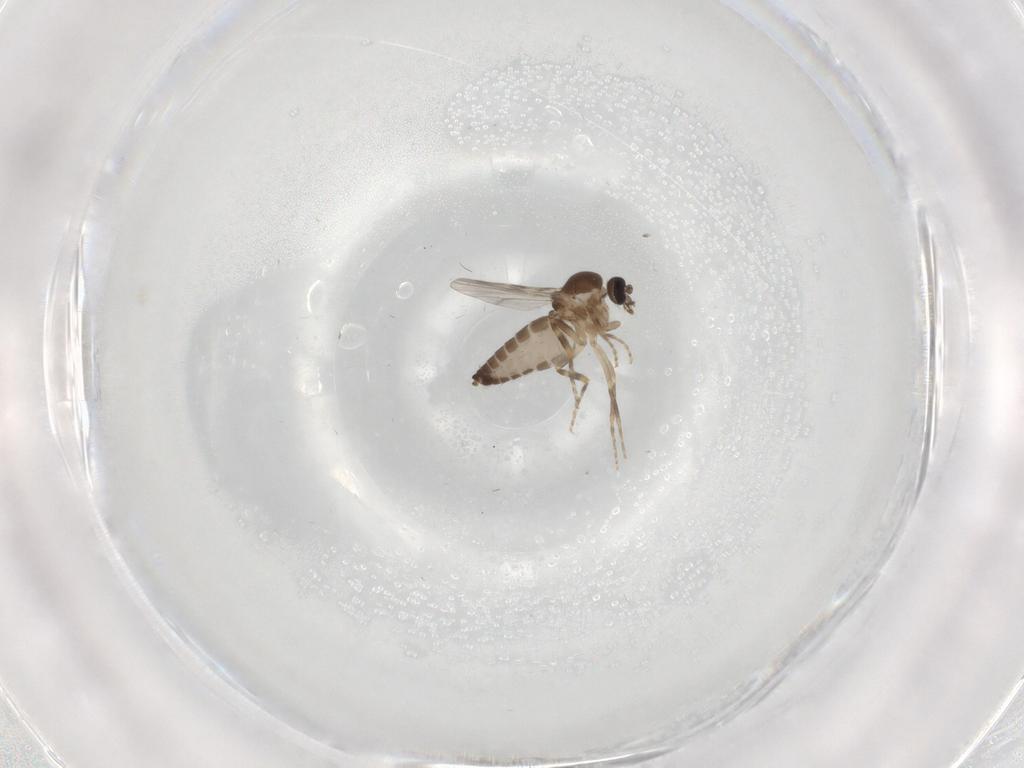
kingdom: Animalia
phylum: Arthropoda
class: Insecta
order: Diptera
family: Ceratopogonidae
